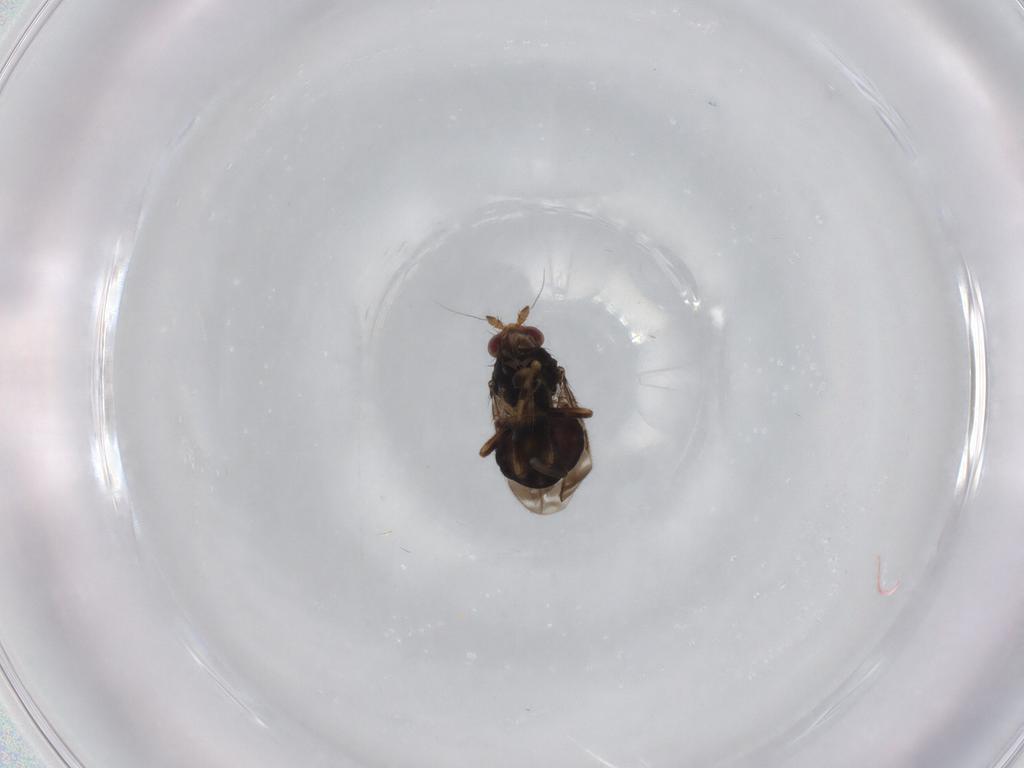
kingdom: Animalia
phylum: Arthropoda
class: Insecta
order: Diptera
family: Sphaeroceridae
